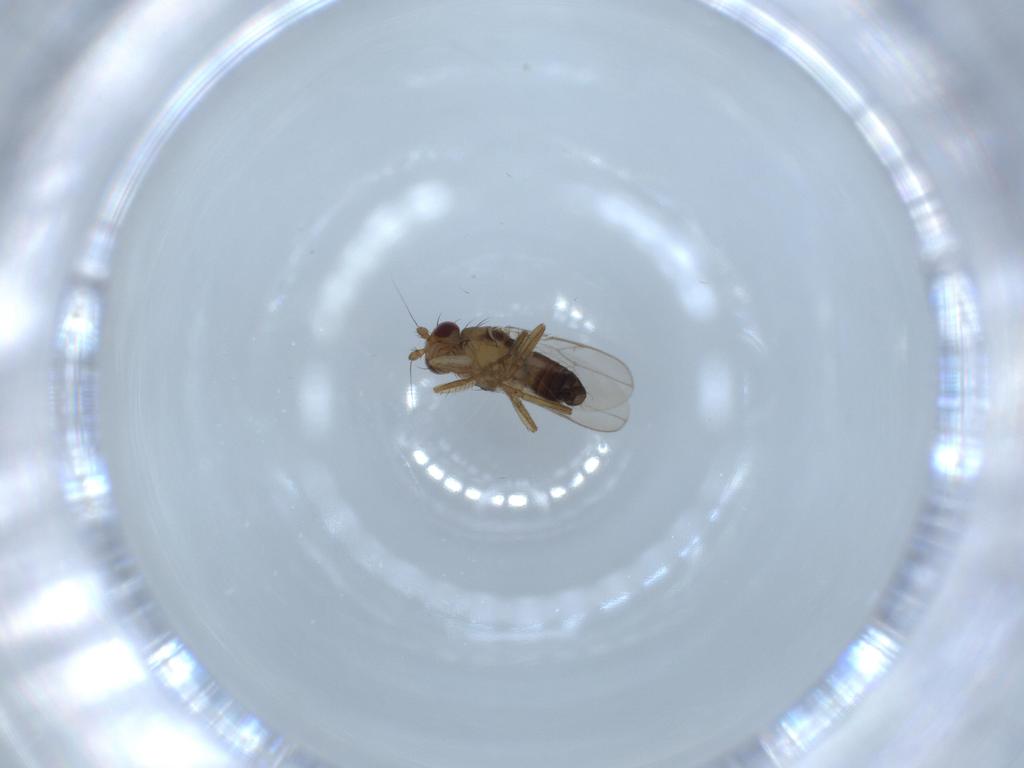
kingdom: Animalia
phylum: Arthropoda
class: Insecta
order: Diptera
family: Sphaeroceridae
